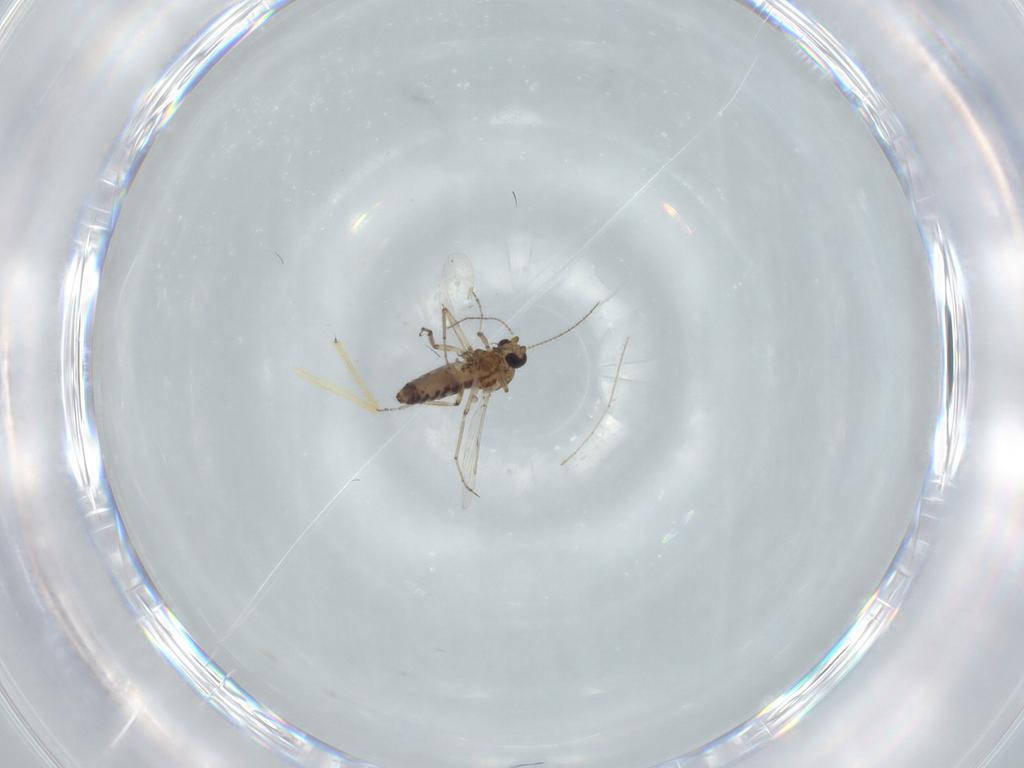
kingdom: Animalia
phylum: Arthropoda
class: Insecta
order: Diptera
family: Ceratopogonidae
